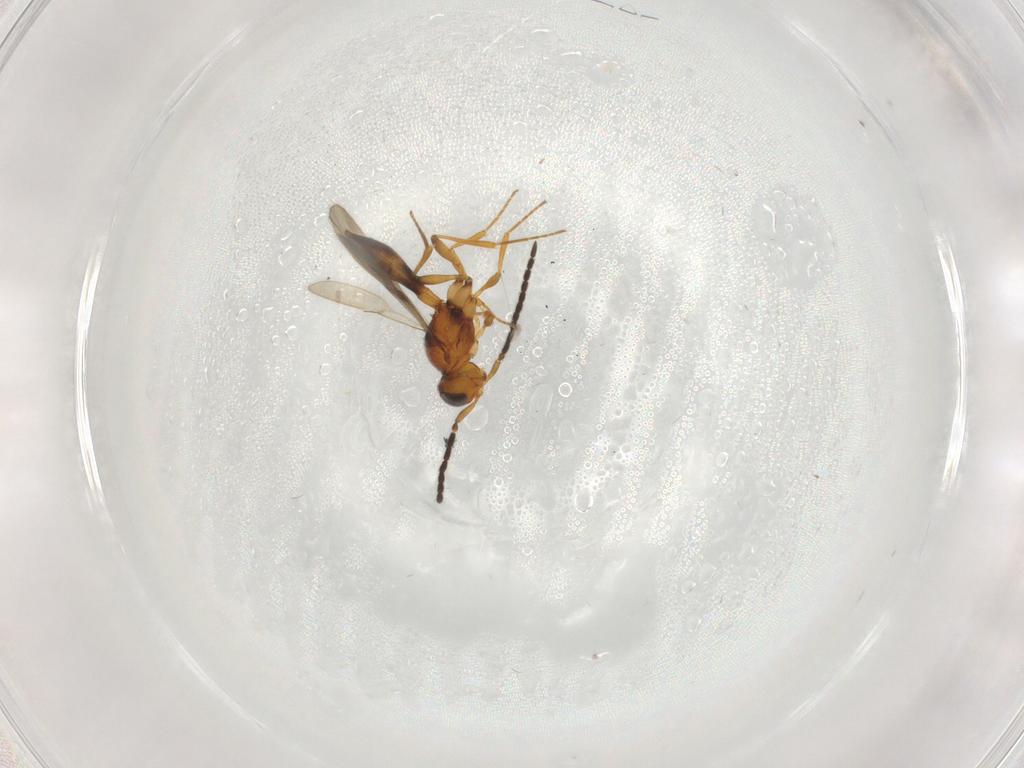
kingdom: Animalia
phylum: Arthropoda
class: Insecta
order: Hymenoptera
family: Scelionidae
